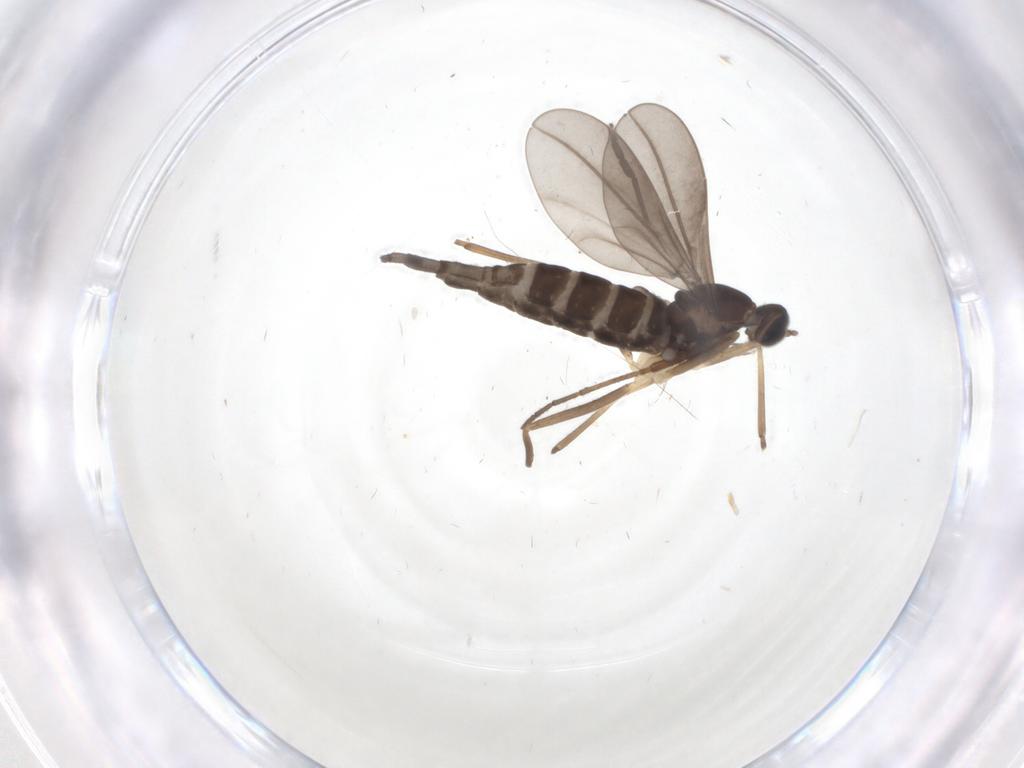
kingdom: Animalia
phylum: Arthropoda
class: Insecta
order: Diptera
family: Cecidomyiidae
